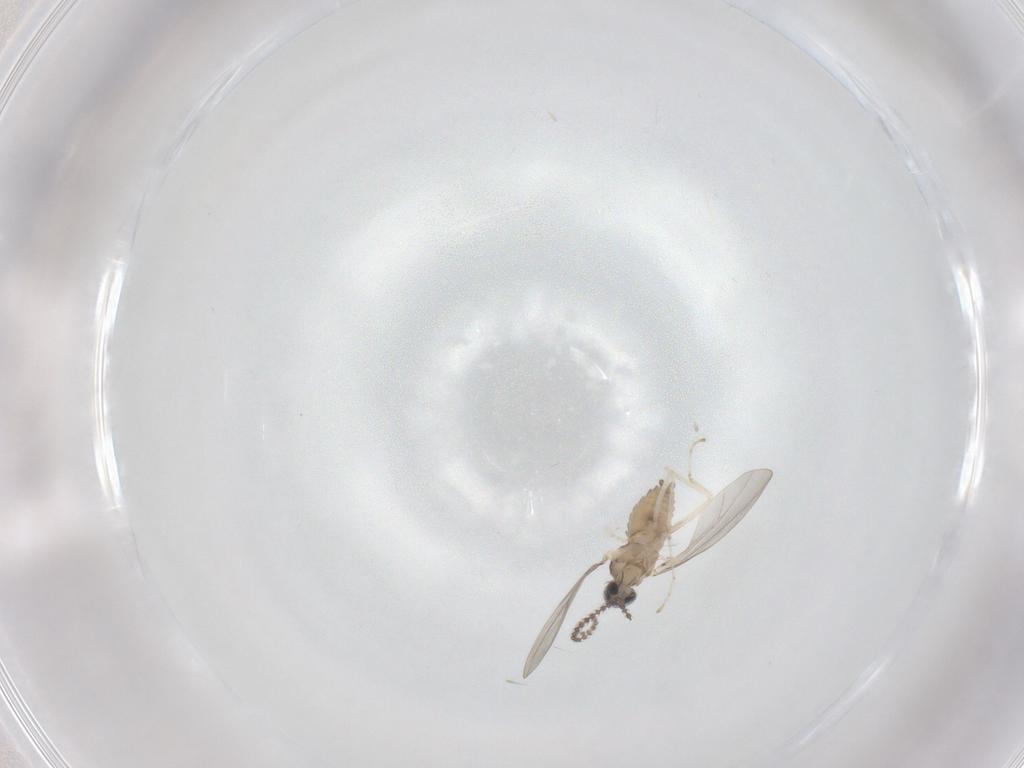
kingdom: Animalia
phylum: Arthropoda
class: Insecta
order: Diptera
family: Cecidomyiidae
